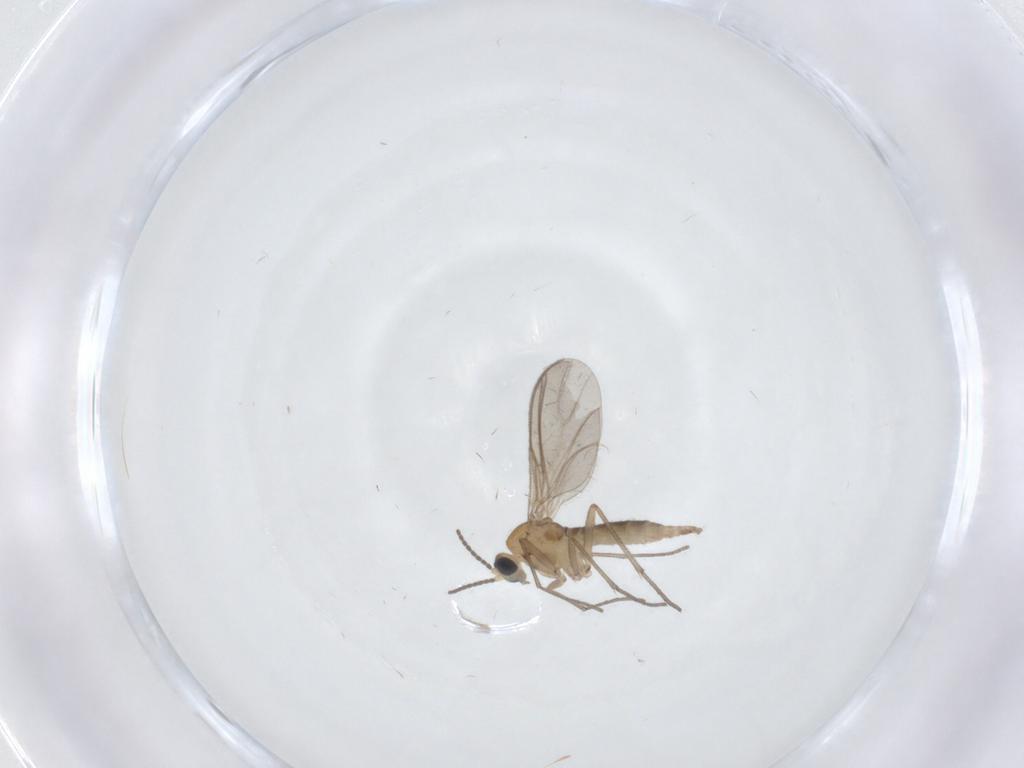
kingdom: Animalia
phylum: Arthropoda
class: Insecta
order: Diptera
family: Sciaridae
